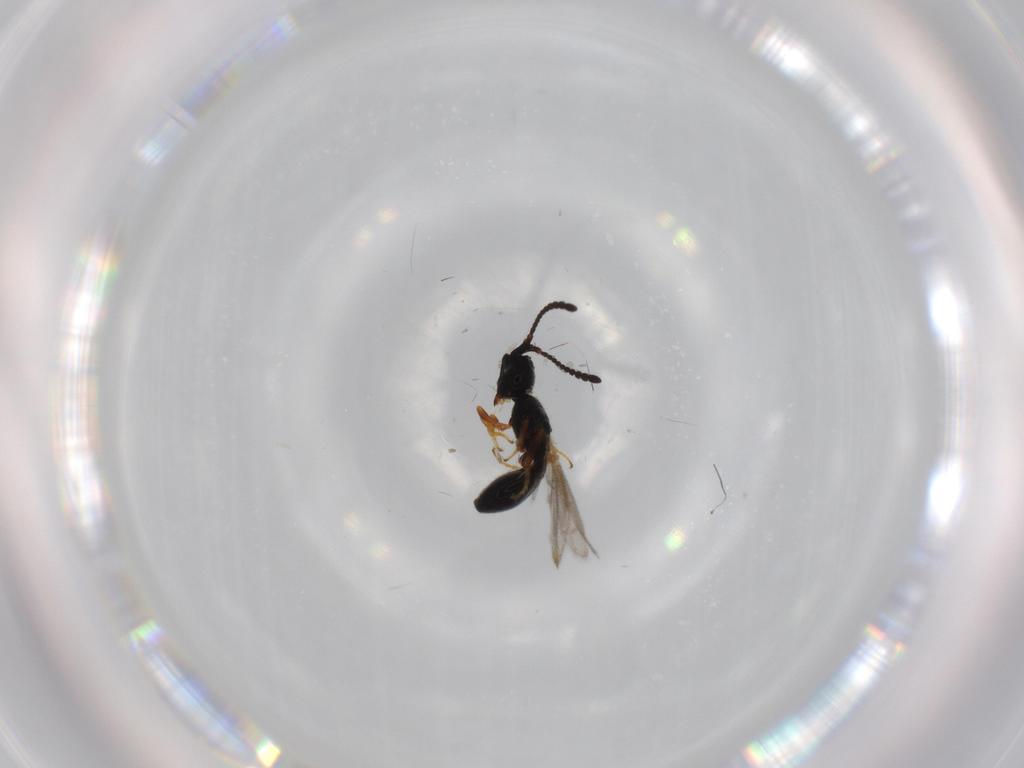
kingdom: Animalia
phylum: Arthropoda
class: Insecta
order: Hymenoptera
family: Diapriidae
